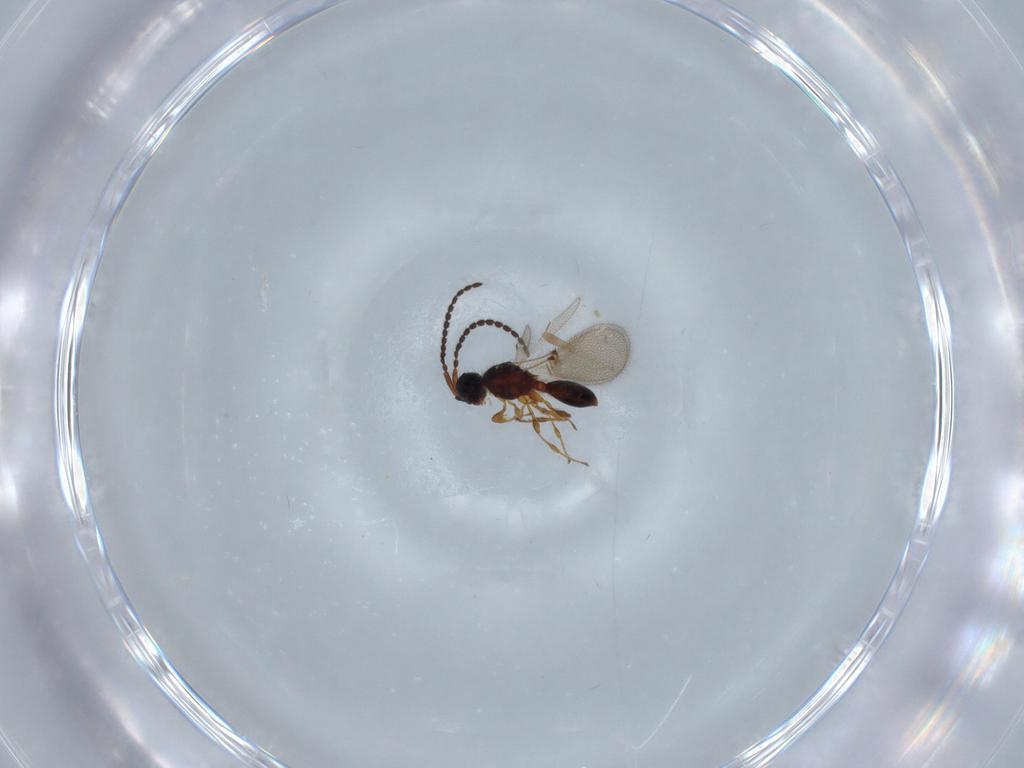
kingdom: Animalia
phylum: Arthropoda
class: Insecta
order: Hymenoptera
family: Diapriidae
